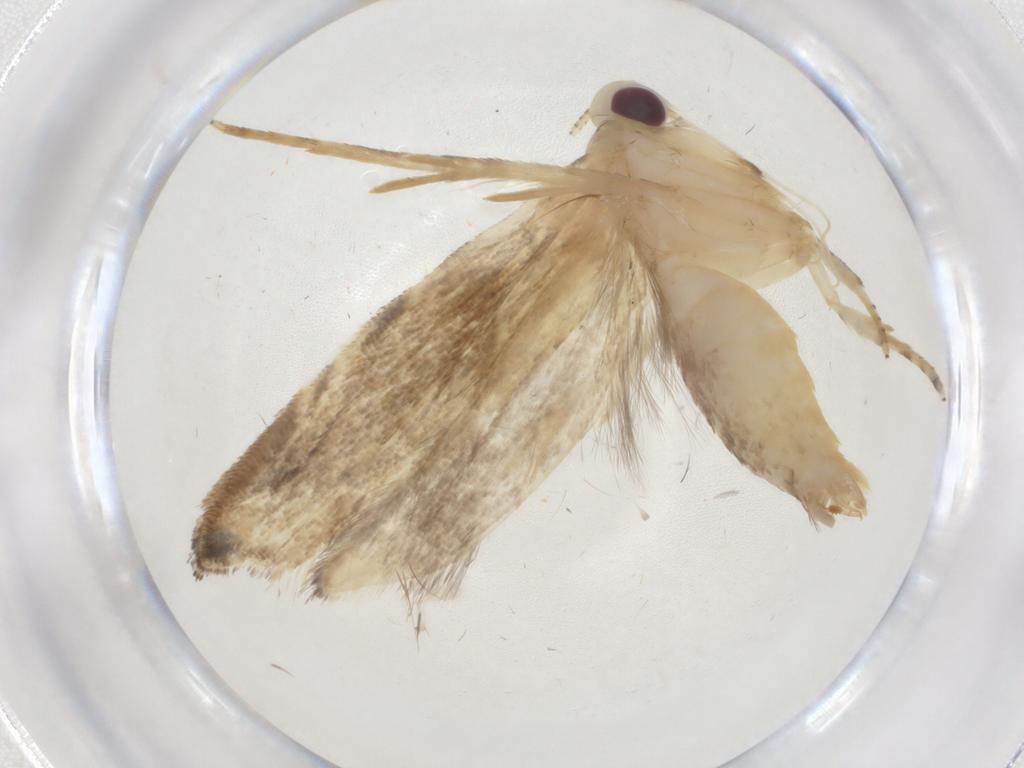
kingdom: Animalia
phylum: Arthropoda
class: Insecta
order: Lepidoptera
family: Gelechiidae
